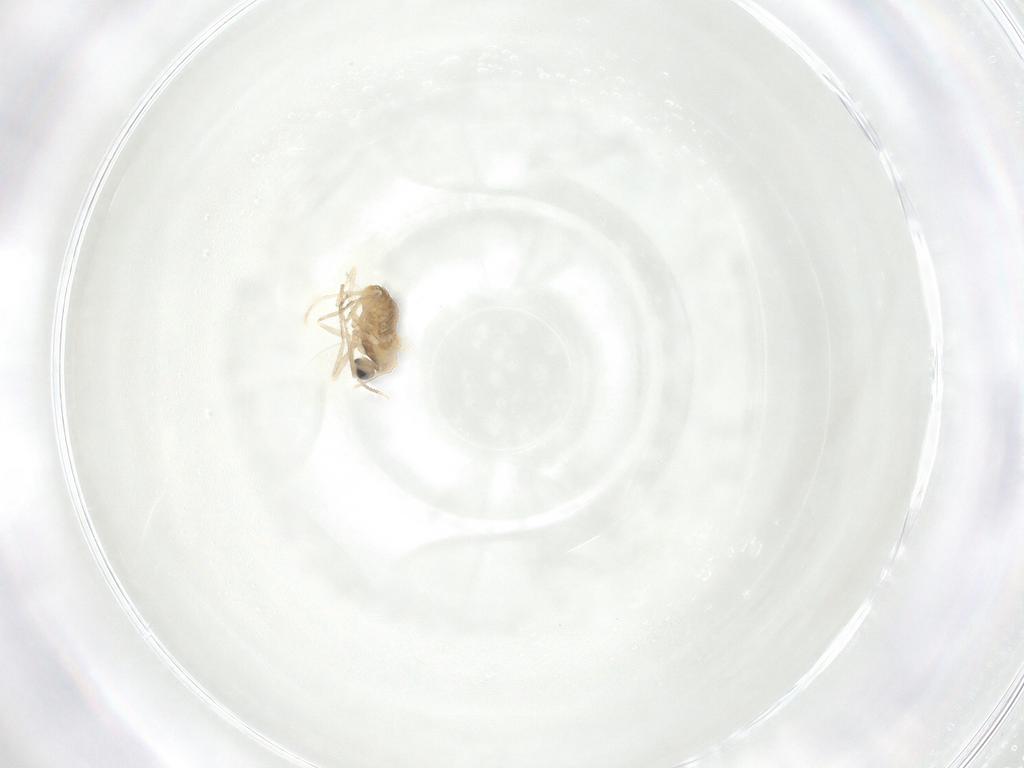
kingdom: Animalia
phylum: Arthropoda
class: Insecta
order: Diptera
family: Cecidomyiidae
